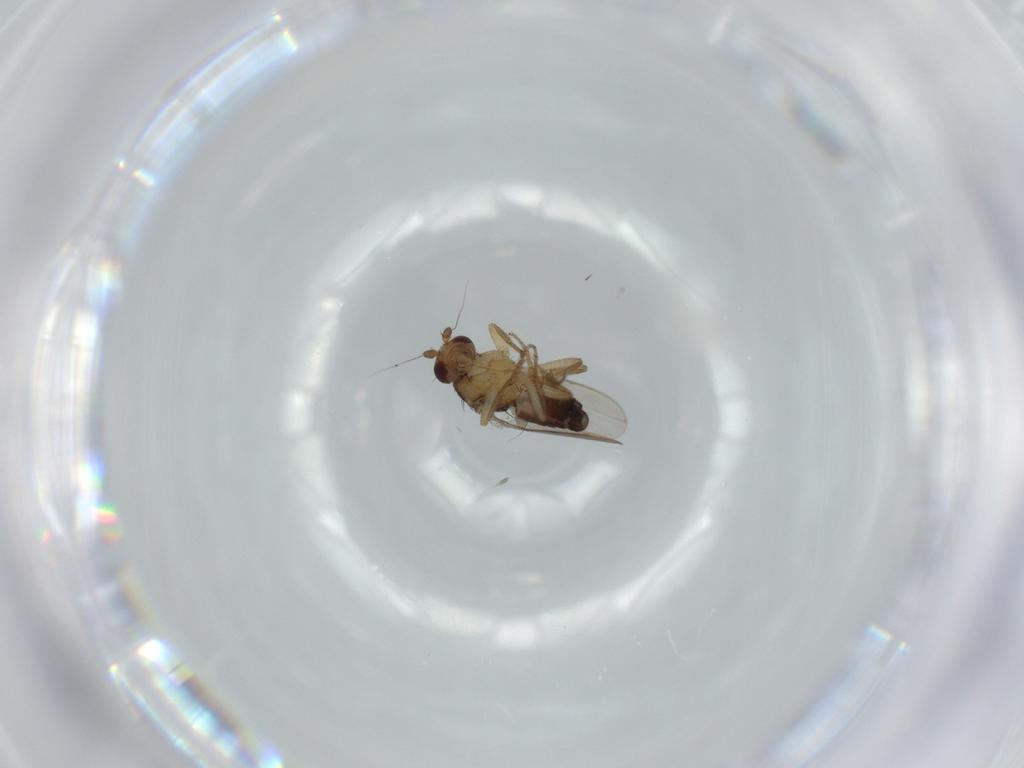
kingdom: Animalia
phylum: Arthropoda
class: Insecta
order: Diptera
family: Sphaeroceridae
